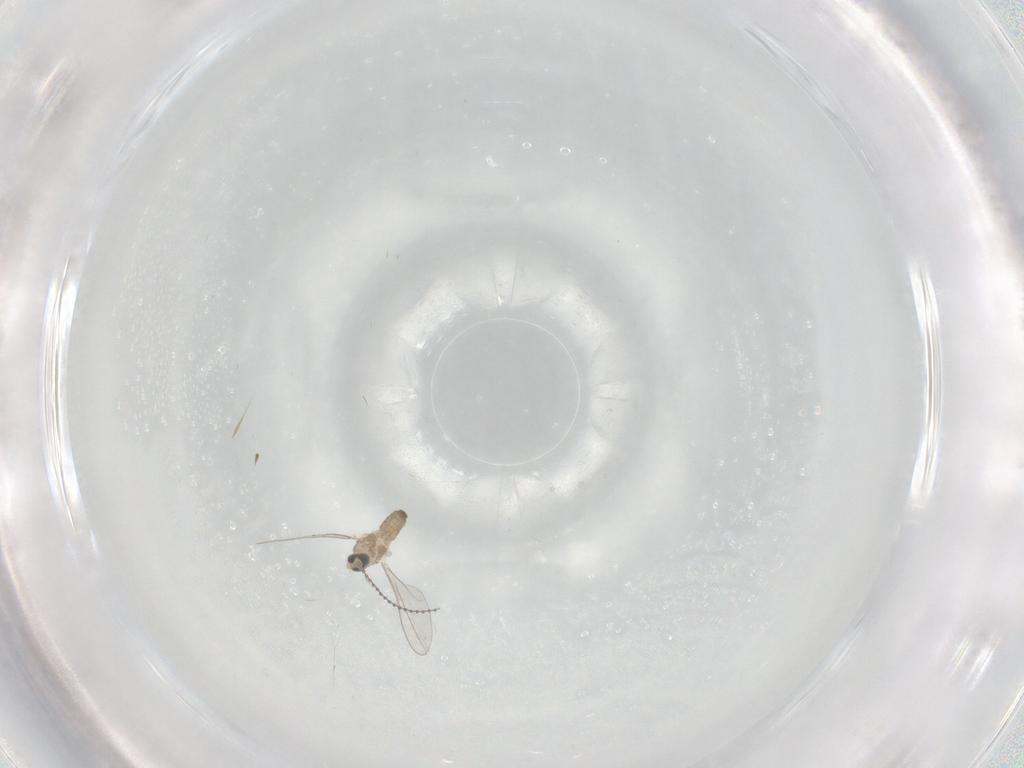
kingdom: Animalia
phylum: Arthropoda
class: Insecta
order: Diptera
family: Cecidomyiidae
